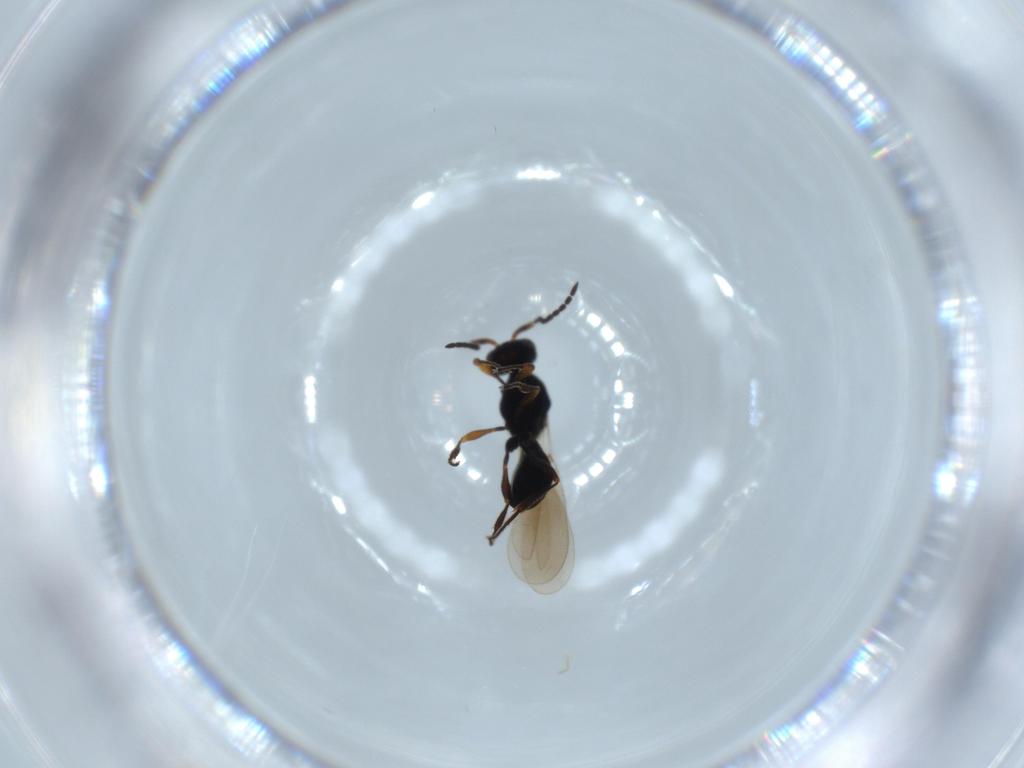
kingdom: Animalia
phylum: Arthropoda
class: Insecta
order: Hymenoptera
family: Platygastridae
